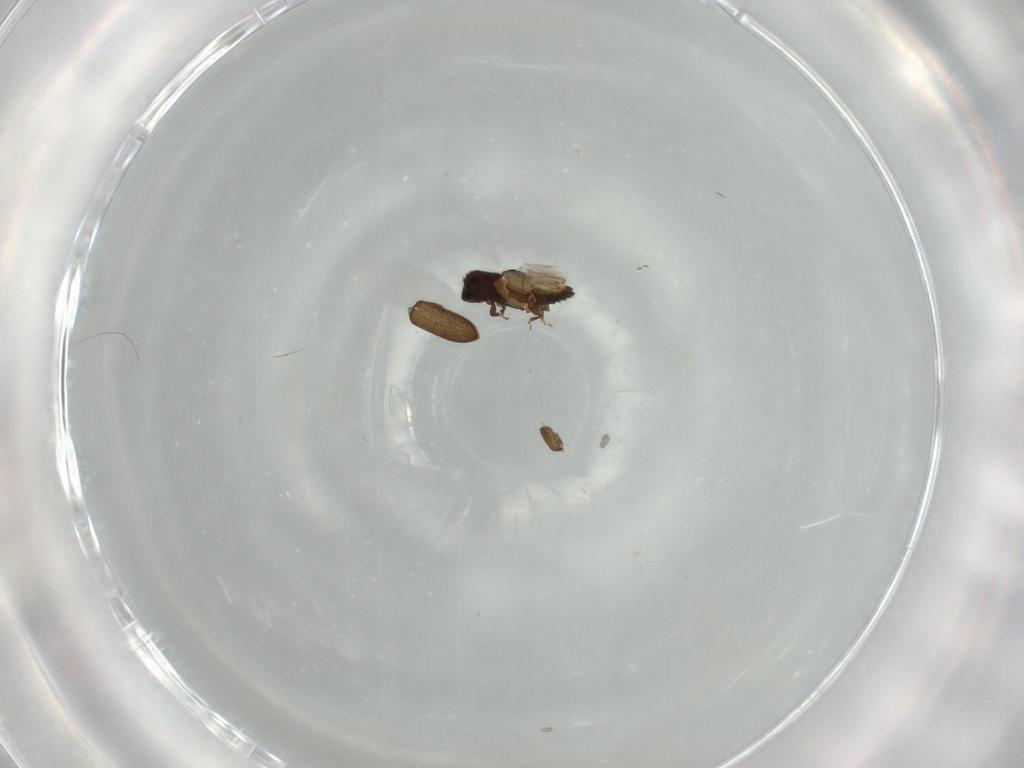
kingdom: Animalia
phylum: Arthropoda
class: Insecta
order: Coleoptera
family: Curculionidae
